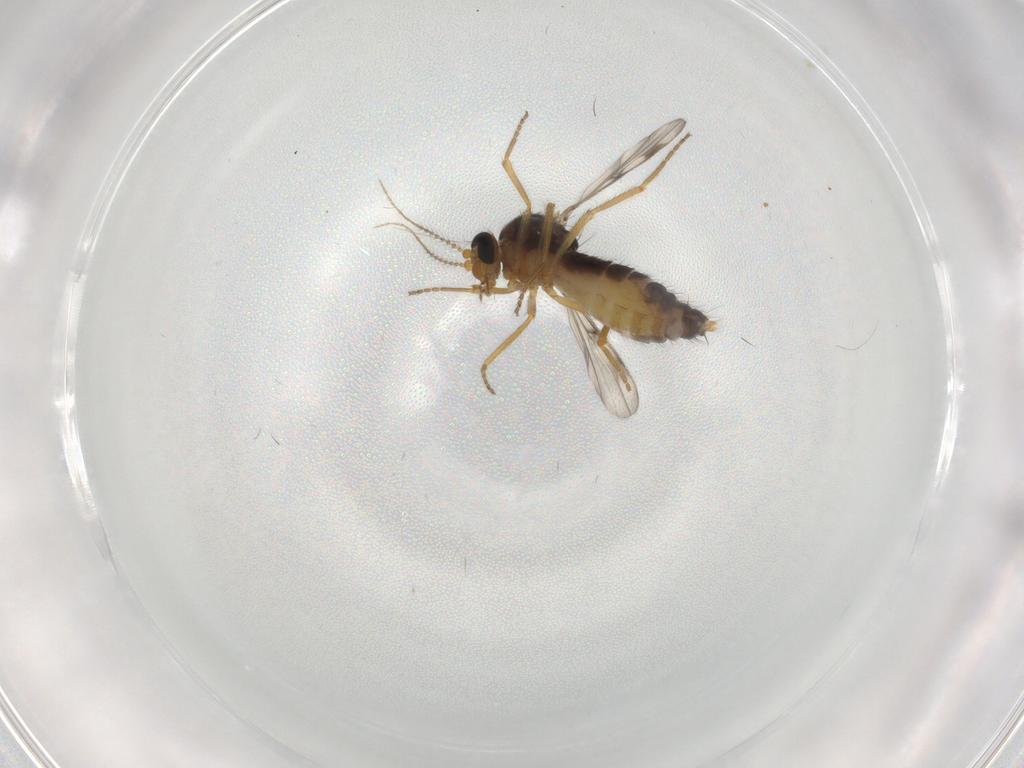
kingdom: Animalia
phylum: Arthropoda
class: Insecta
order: Diptera
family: Ceratopogonidae
